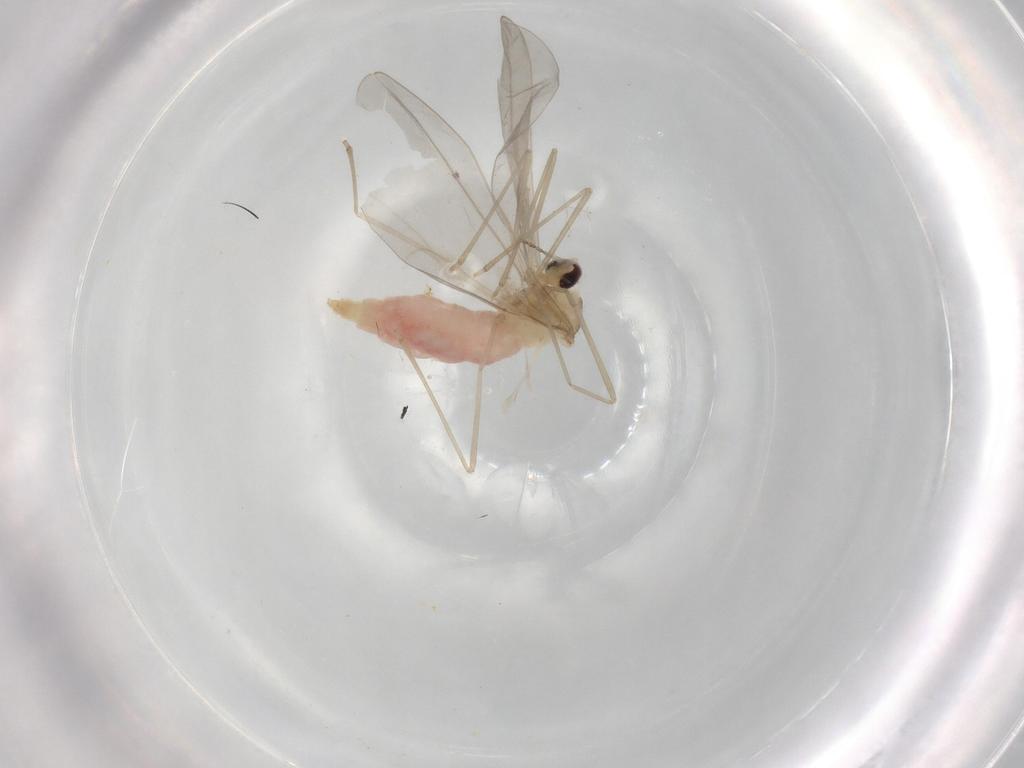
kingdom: Animalia
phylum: Arthropoda
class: Insecta
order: Diptera
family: Cecidomyiidae
